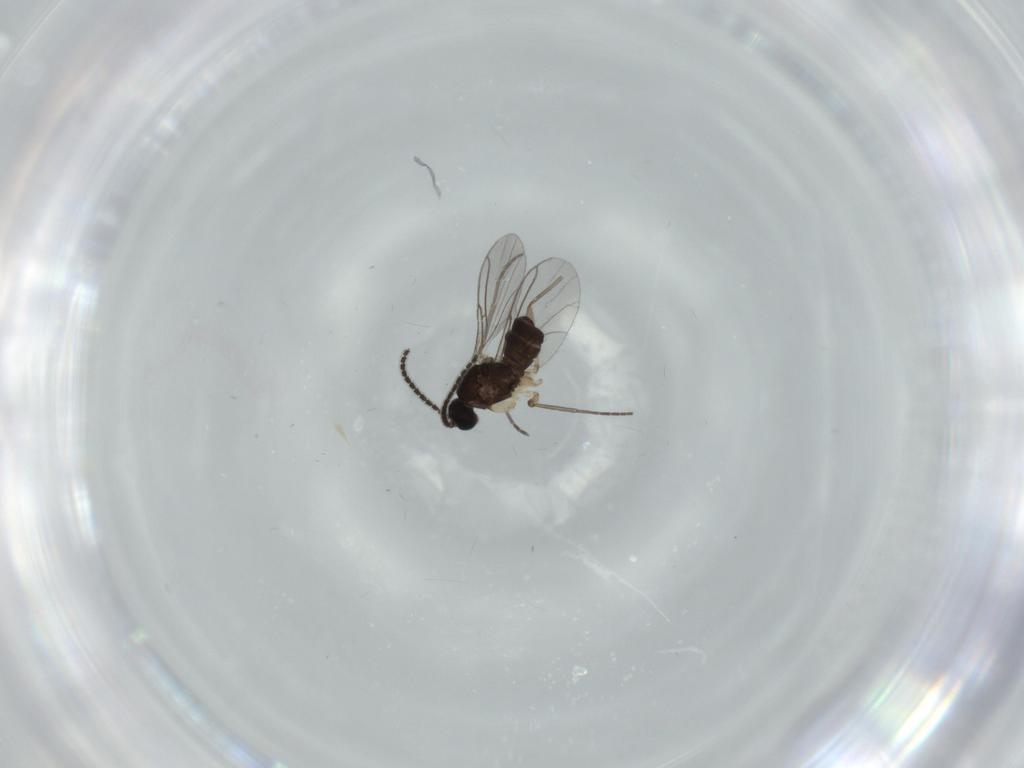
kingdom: Animalia
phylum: Arthropoda
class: Insecta
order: Diptera
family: Sciaridae
